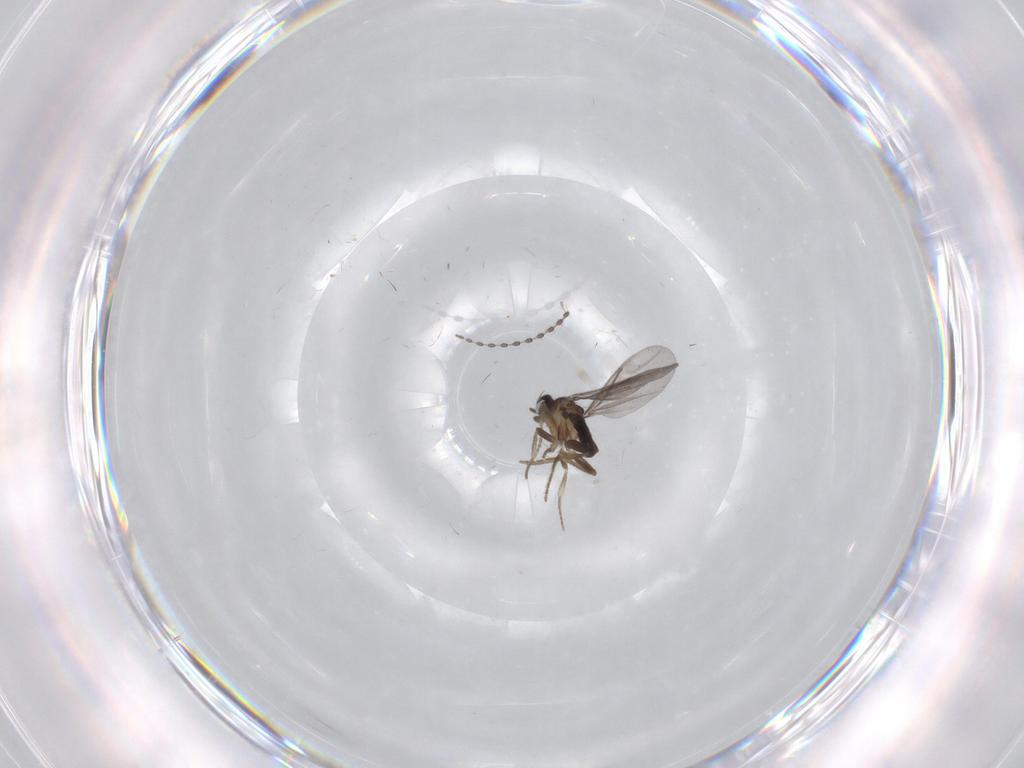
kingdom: Animalia
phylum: Arthropoda
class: Insecta
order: Diptera
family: Cecidomyiidae
